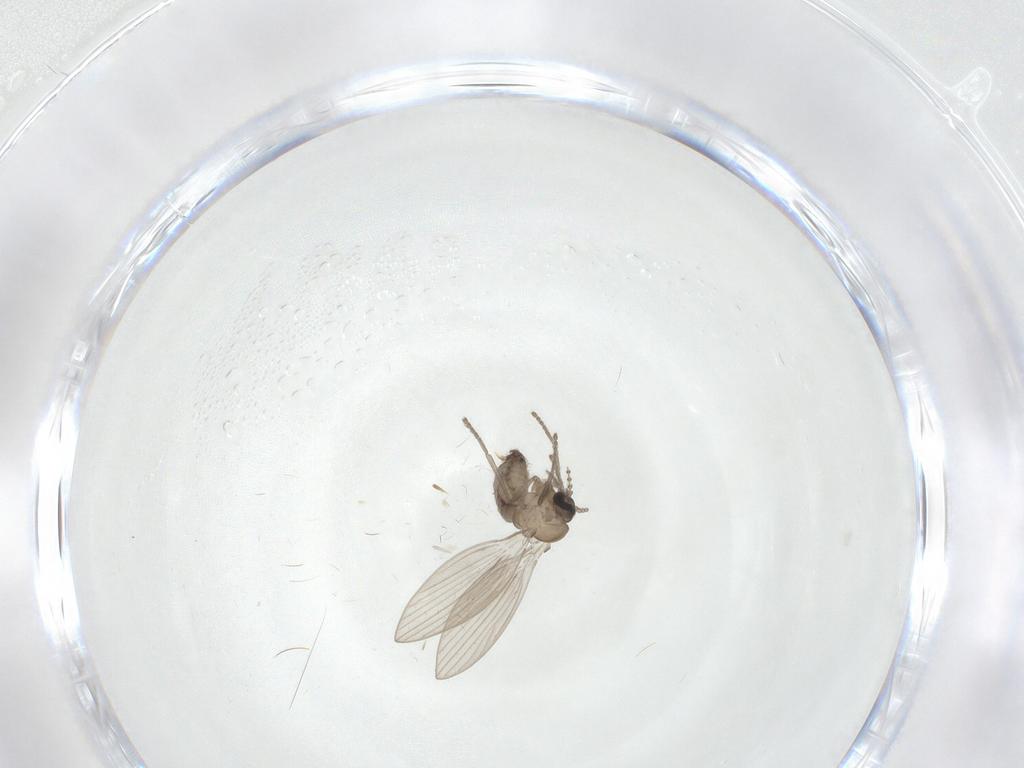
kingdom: Animalia
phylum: Arthropoda
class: Insecta
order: Diptera
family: Psychodidae
